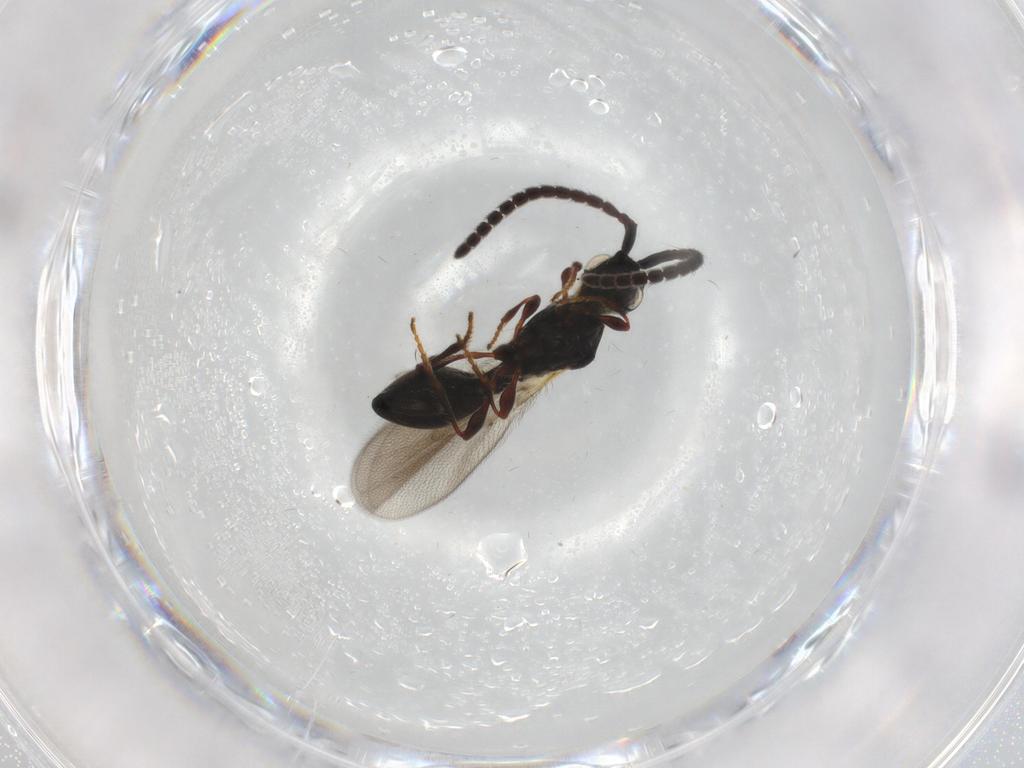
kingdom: Animalia
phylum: Arthropoda
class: Insecta
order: Hymenoptera
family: Diapriidae
